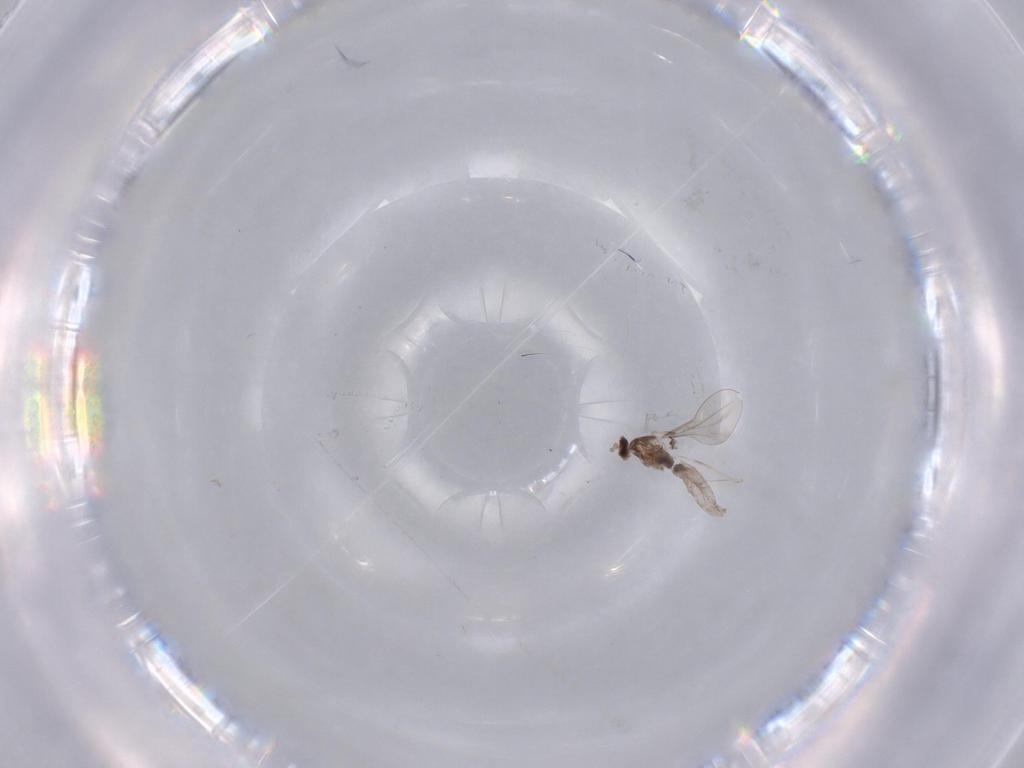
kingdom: Animalia
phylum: Arthropoda
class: Insecta
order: Diptera
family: Cecidomyiidae
